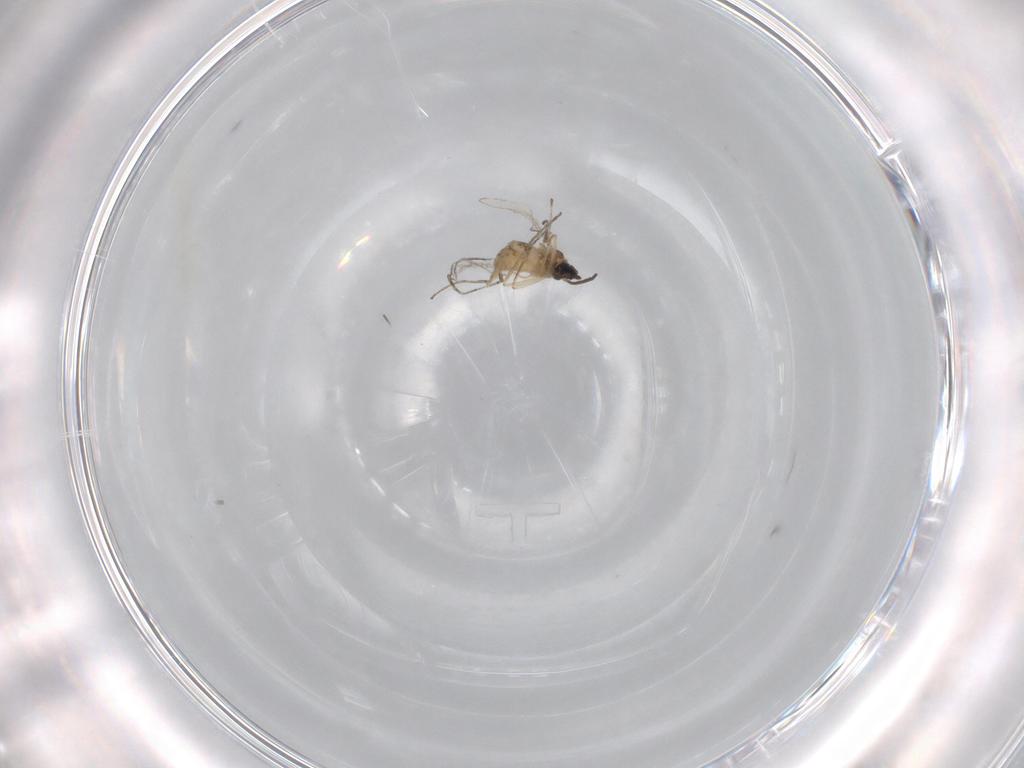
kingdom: Animalia
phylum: Arthropoda
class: Insecta
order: Diptera
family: Cecidomyiidae
